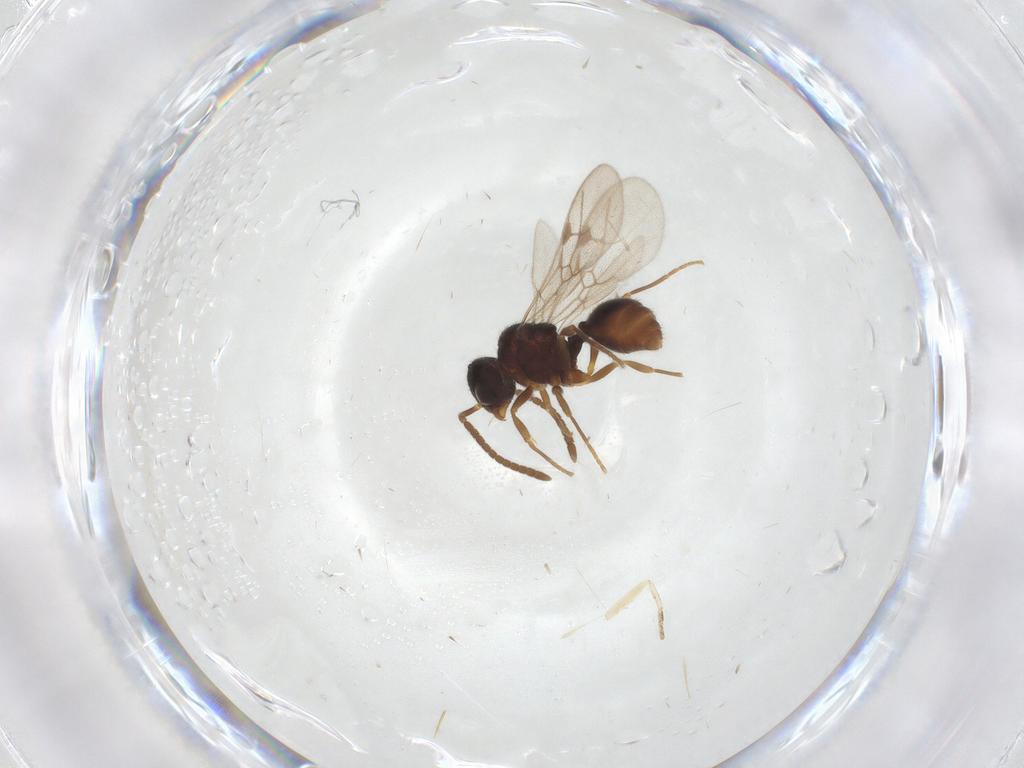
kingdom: Animalia
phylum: Arthropoda
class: Insecta
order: Hymenoptera
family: Formicidae
